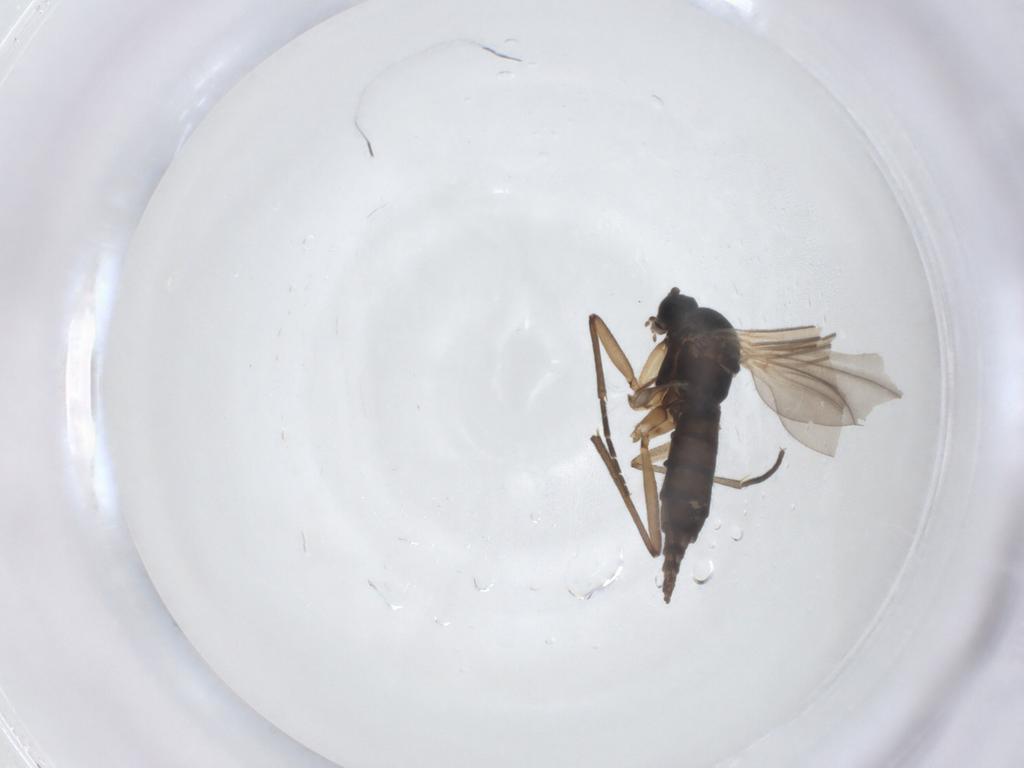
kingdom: Animalia
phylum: Arthropoda
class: Insecta
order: Diptera
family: Sciaridae
